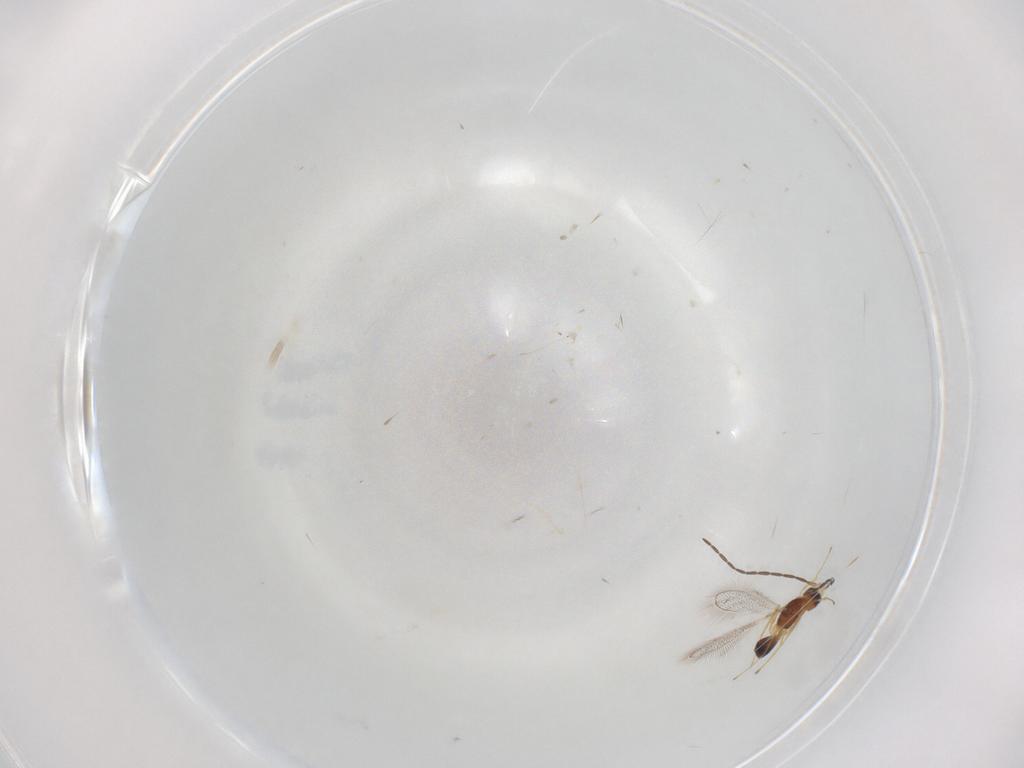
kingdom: Animalia
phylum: Arthropoda
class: Insecta
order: Hymenoptera
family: Mymaridae
